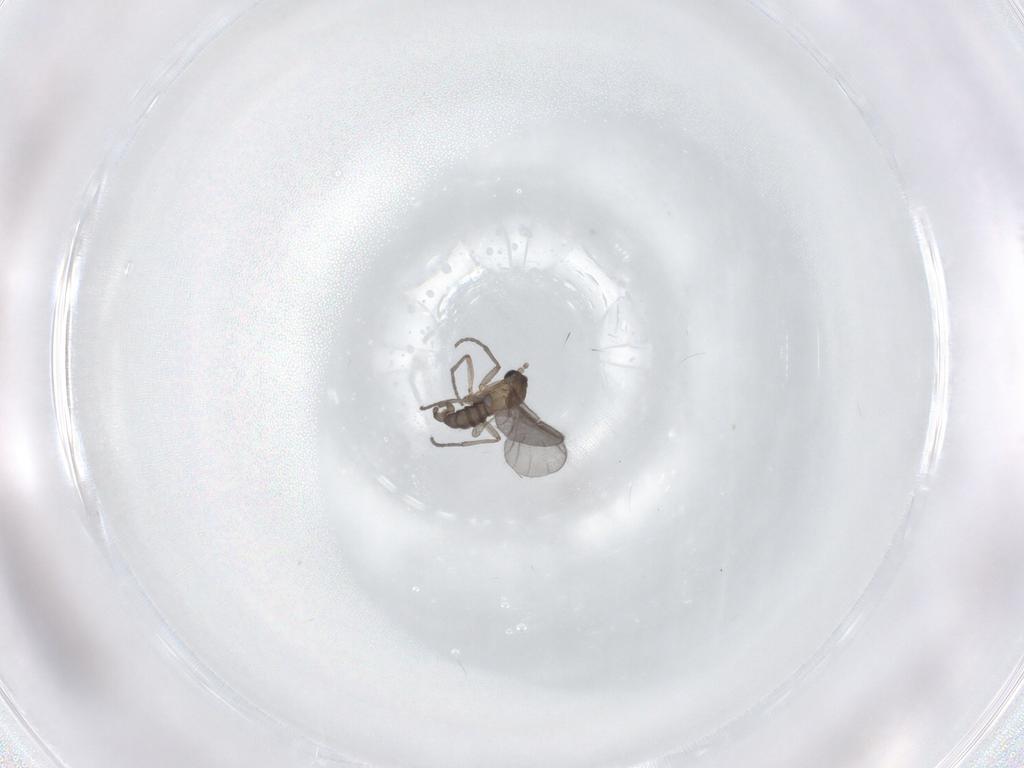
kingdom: Animalia
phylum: Arthropoda
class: Insecta
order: Diptera
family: Sciaridae
